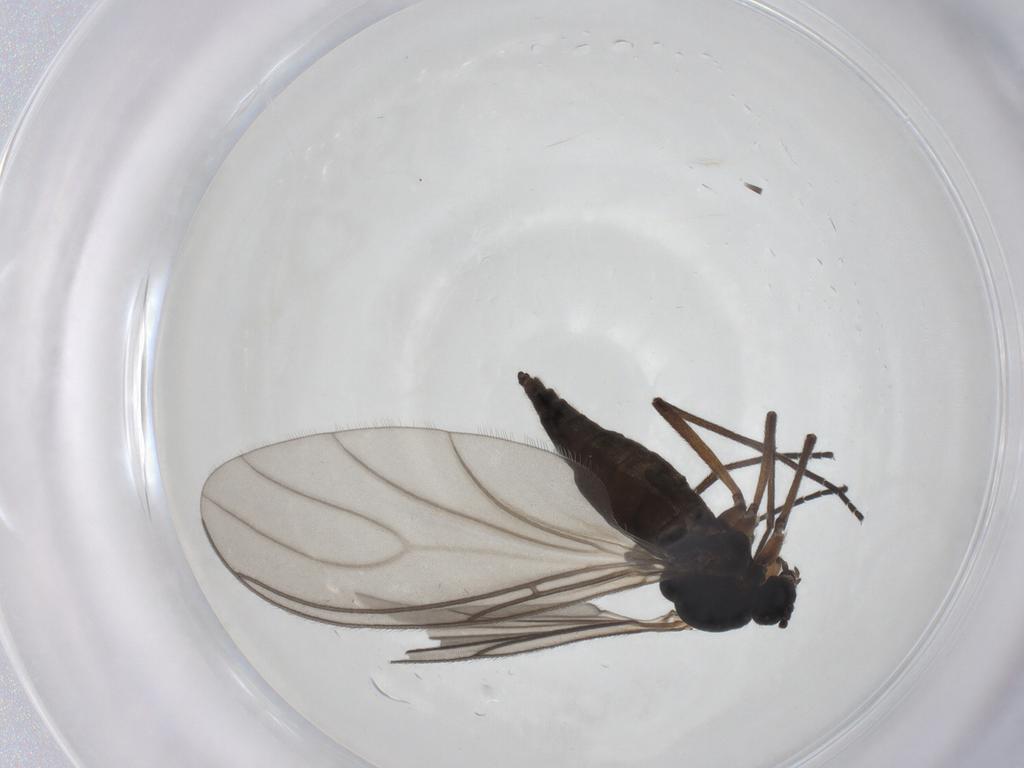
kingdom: Animalia
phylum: Arthropoda
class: Insecta
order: Diptera
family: Sciaridae
